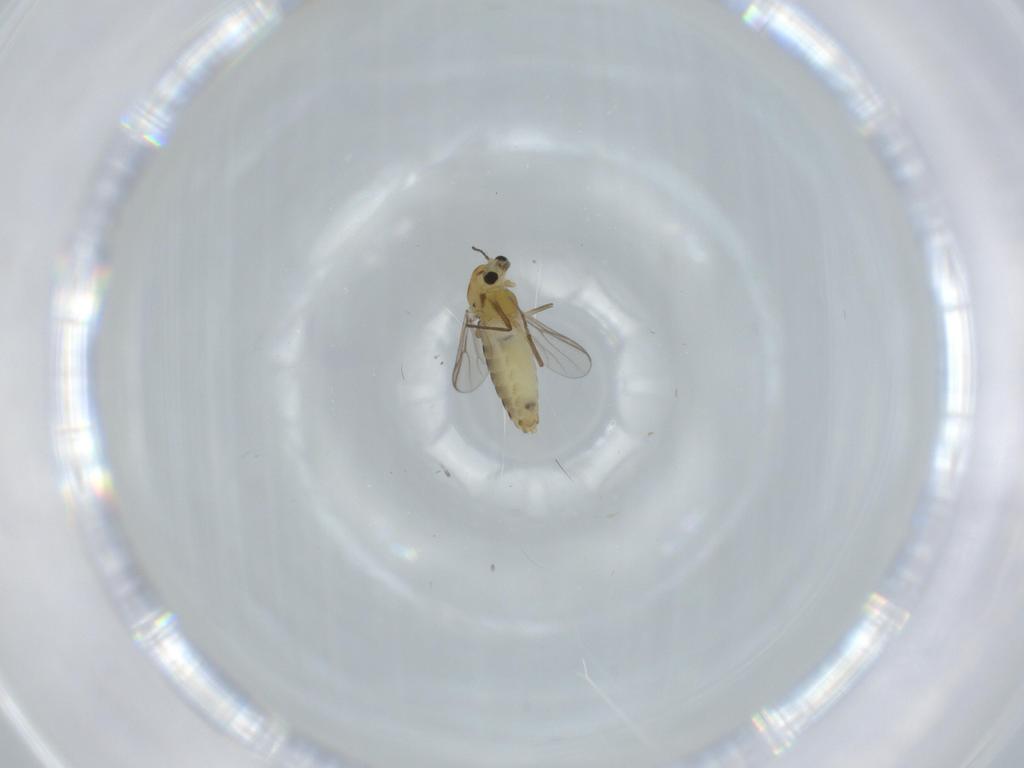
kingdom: Animalia
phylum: Arthropoda
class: Insecta
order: Diptera
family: Chironomidae
